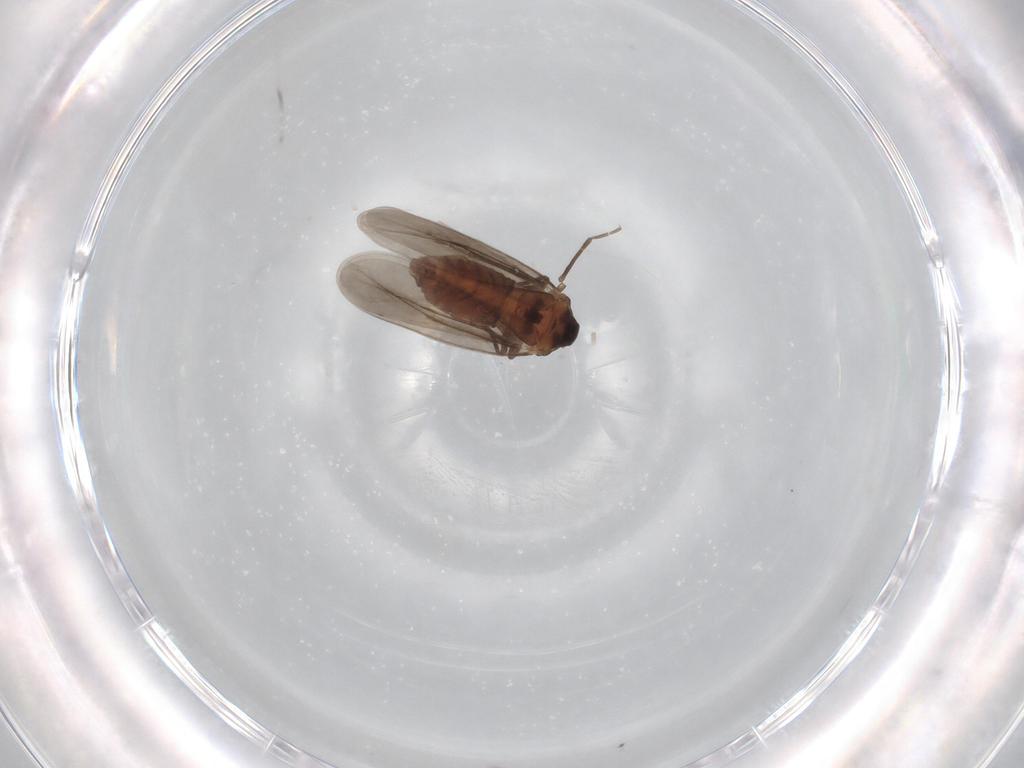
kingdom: Animalia
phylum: Arthropoda
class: Insecta
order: Hemiptera
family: Aleyrodidae
